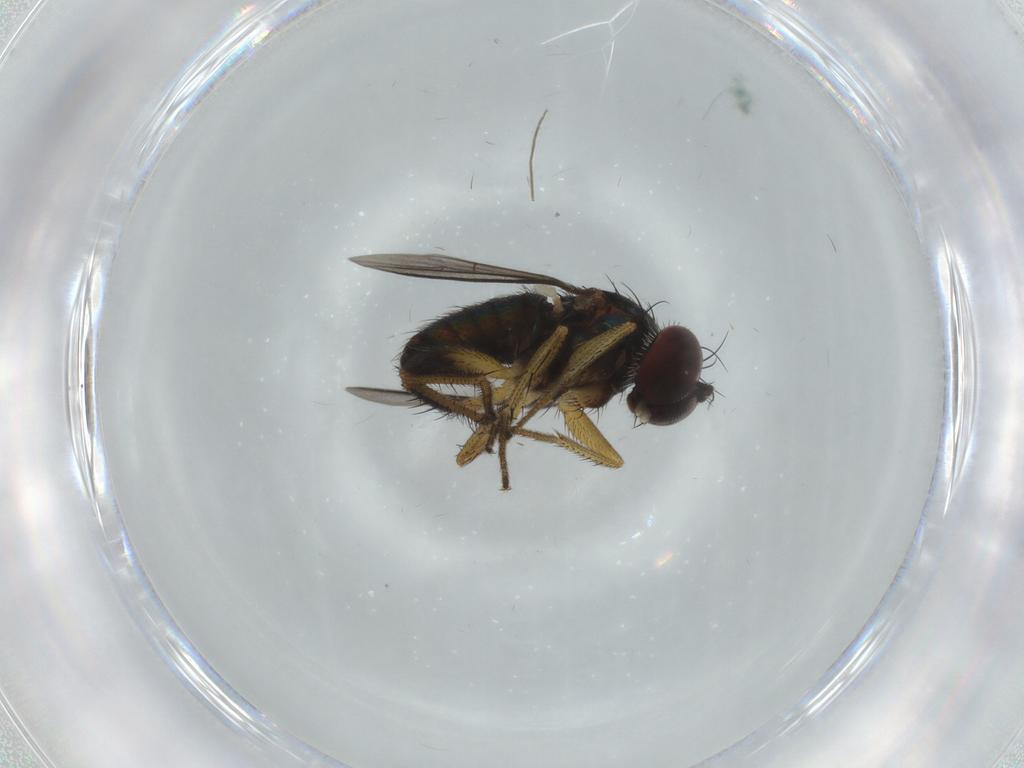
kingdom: Animalia
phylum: Arthropoda
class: Insecta
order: Diptera
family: Dolichopodidae
